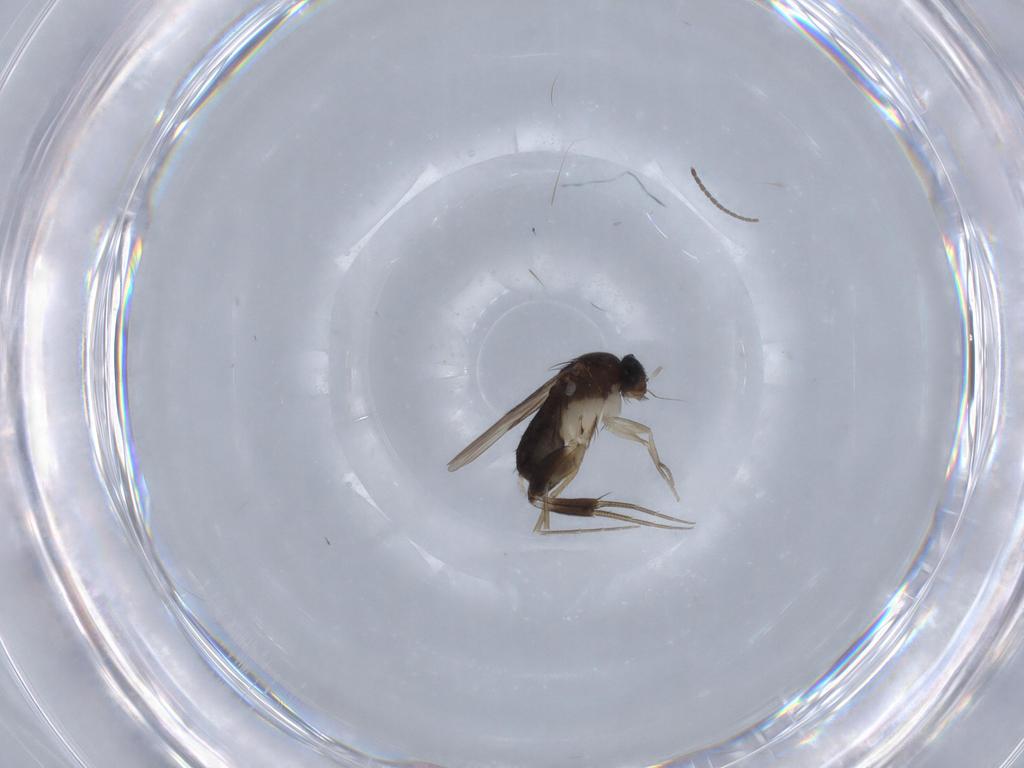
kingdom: Animalia
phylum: Arthropoda
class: Insecta
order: Diptera
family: Phoridae
